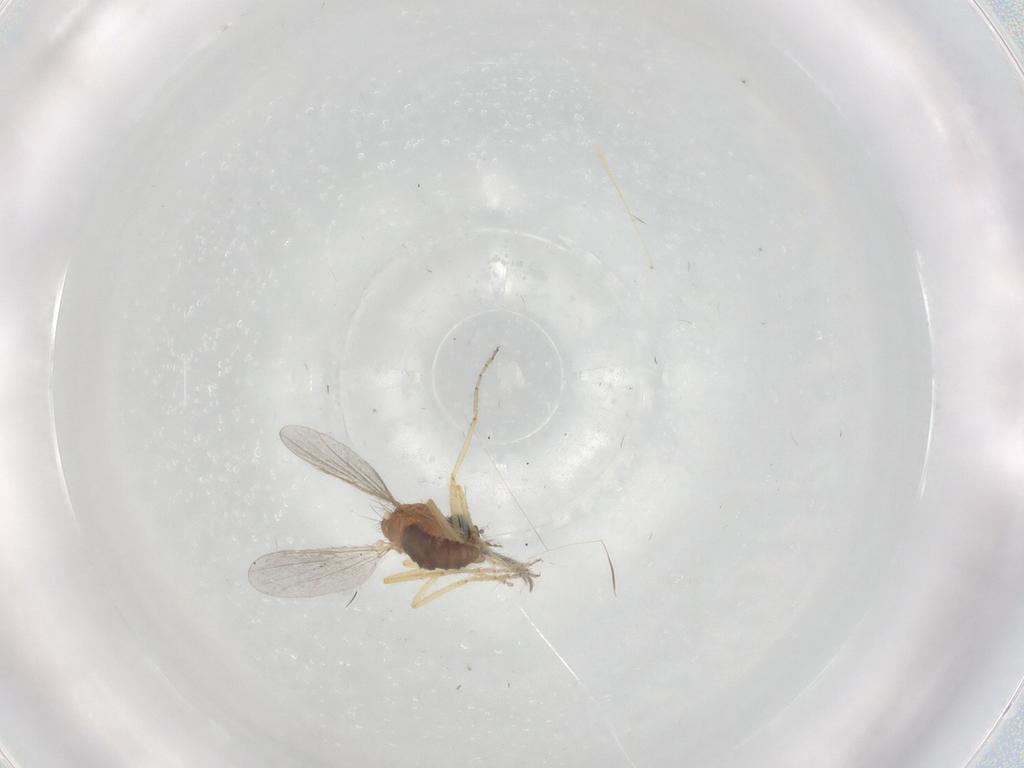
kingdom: Animalia
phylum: Arthropoda
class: Insecta
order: Diptera
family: Ceratopogonidae
